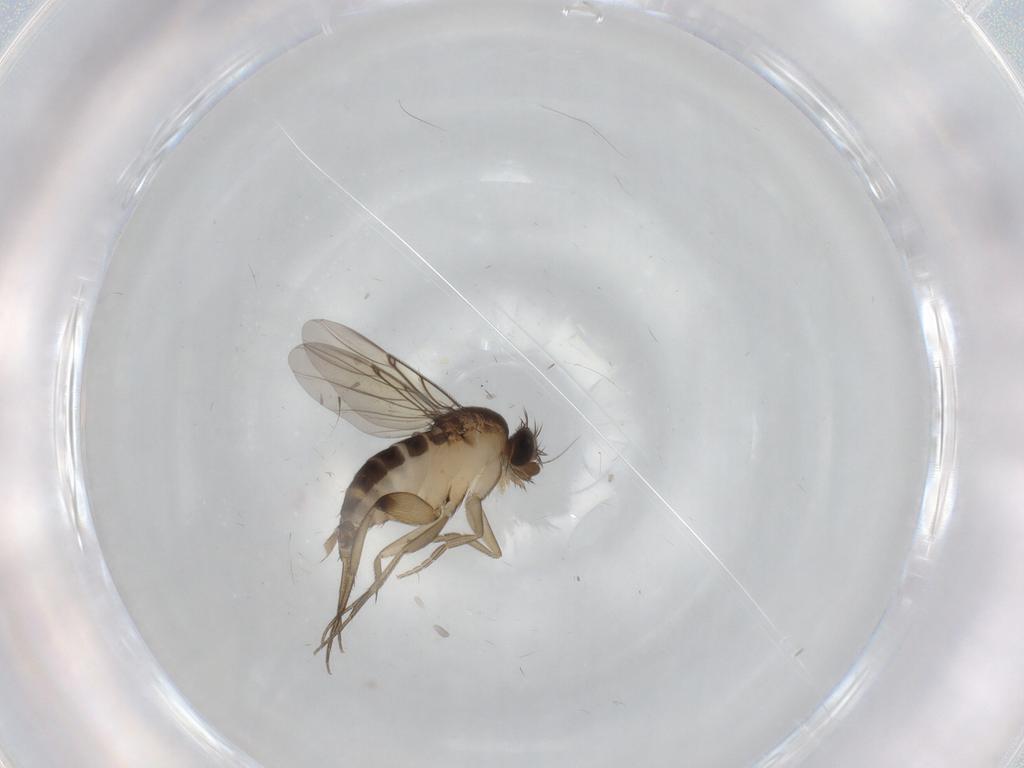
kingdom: Animalia
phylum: Arthropoda
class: Insecta
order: Diptera
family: Phoridae
